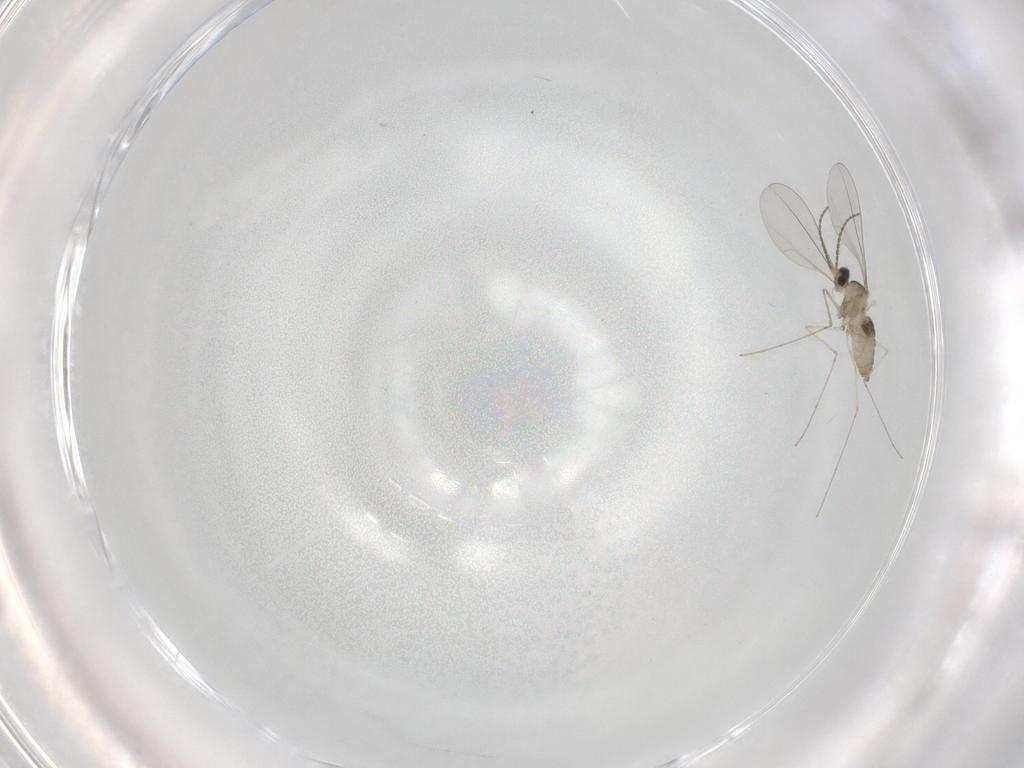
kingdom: Animalia
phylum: Arthropoda
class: Insecta
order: Diptera
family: Cecidomyiidae
